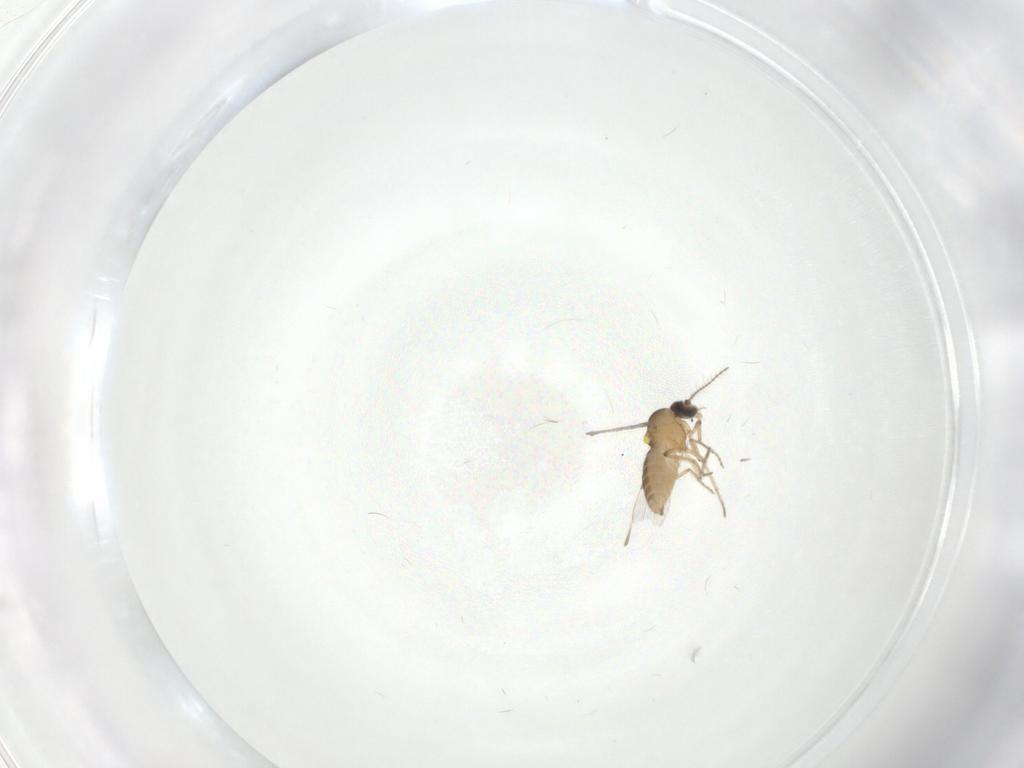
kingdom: Animalia
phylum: Arthropoda
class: Insecta
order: Diptera
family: Ceratopogonidae
